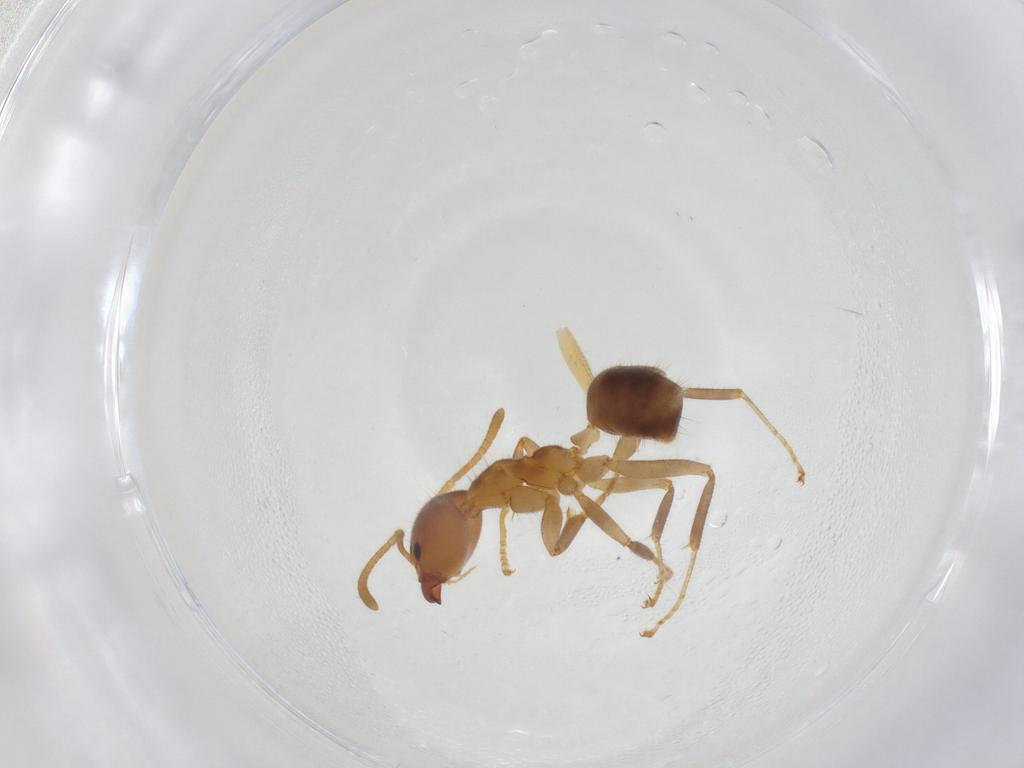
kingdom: Animalia
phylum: Arthropoda
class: Insecta
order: Hymenoptera
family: Formicidae
